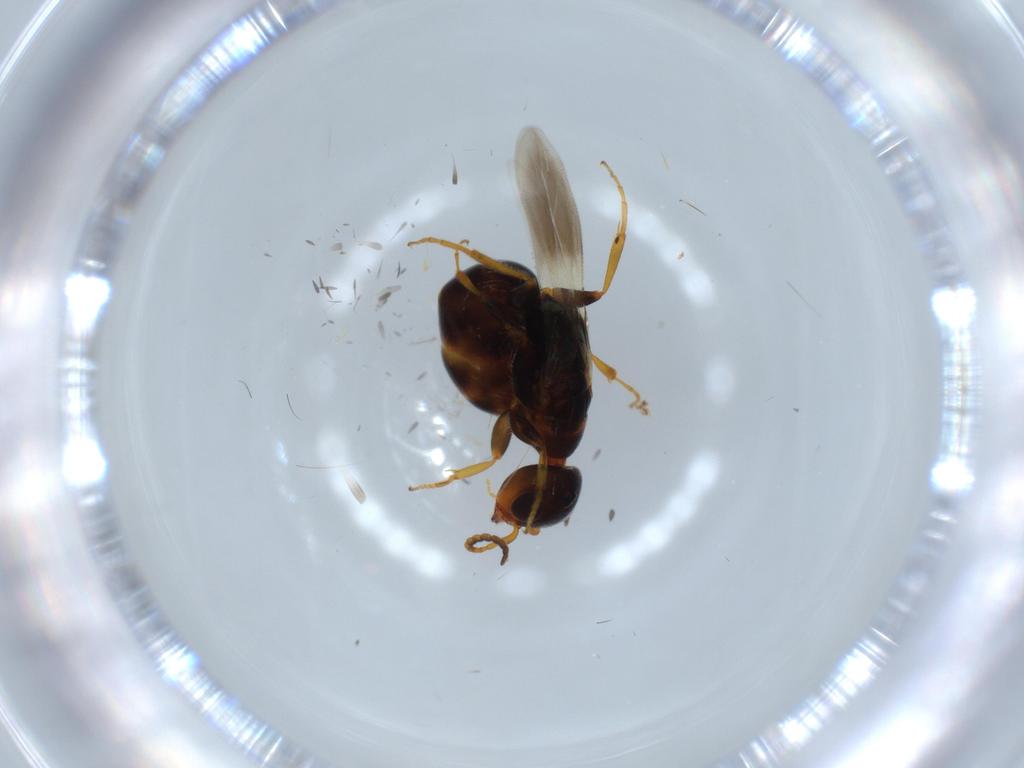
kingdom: Animalia
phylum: Arthropoda
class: Insecta
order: Hymenoptera
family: Bethylidae
